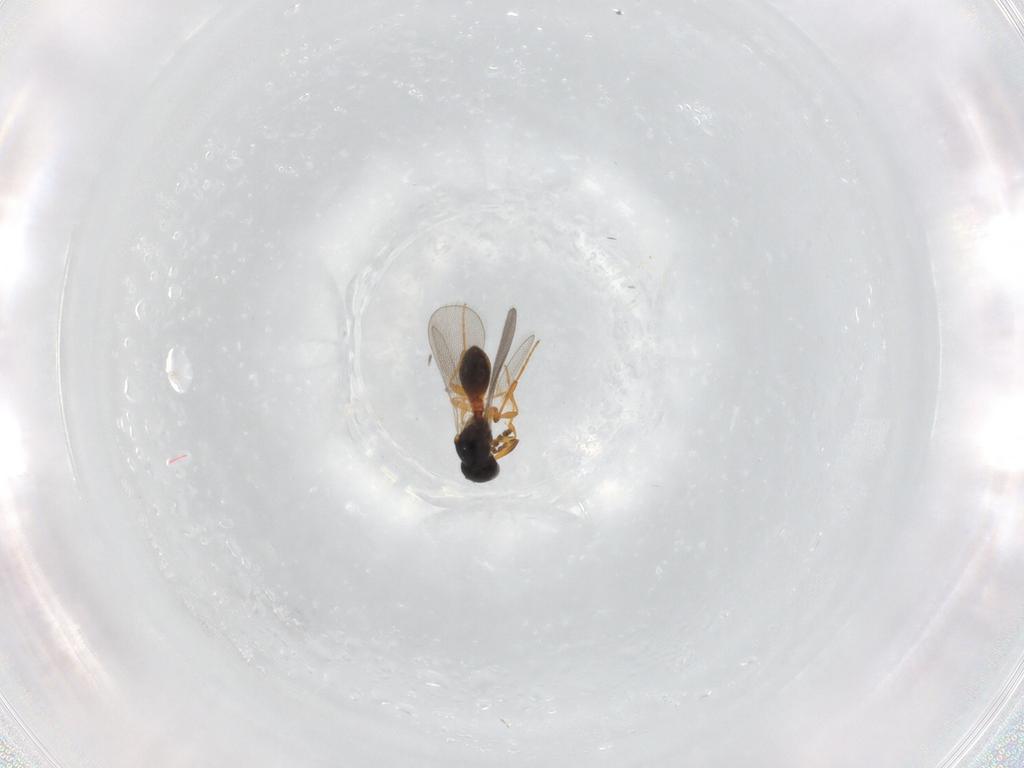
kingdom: Animalia
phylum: Arthropoda
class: Insecta
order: Hymenoptera
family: Platygastridae
